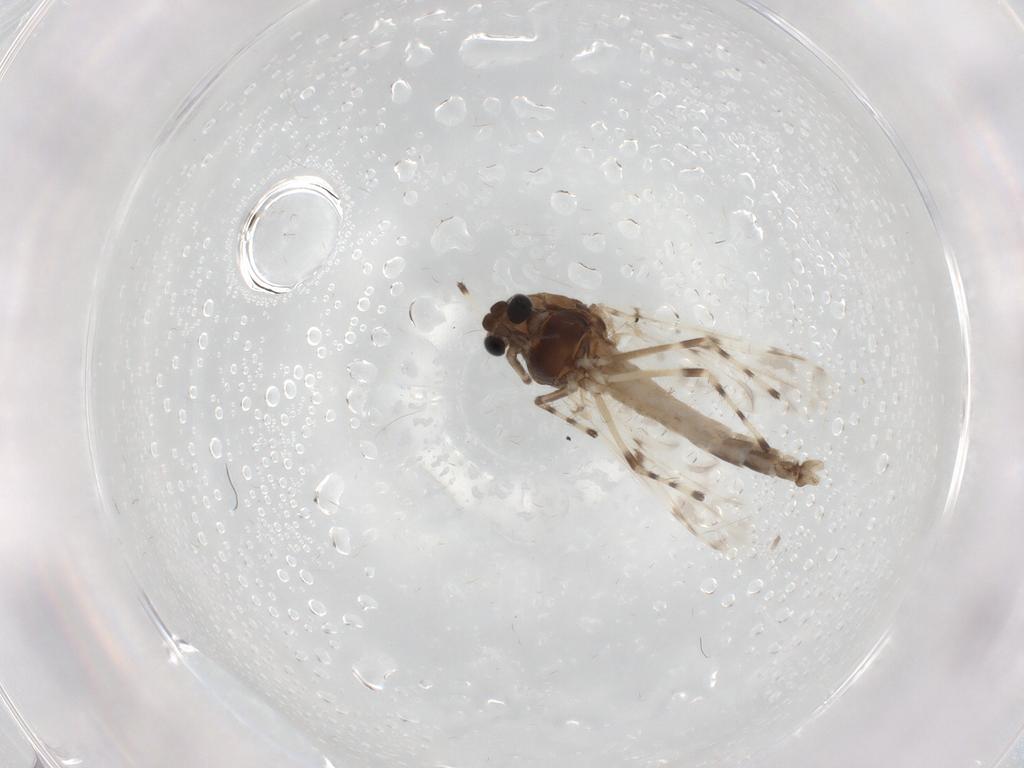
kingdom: Animalia
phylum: Arthropoda
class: Insecta
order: Diptera
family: Chironomidae
